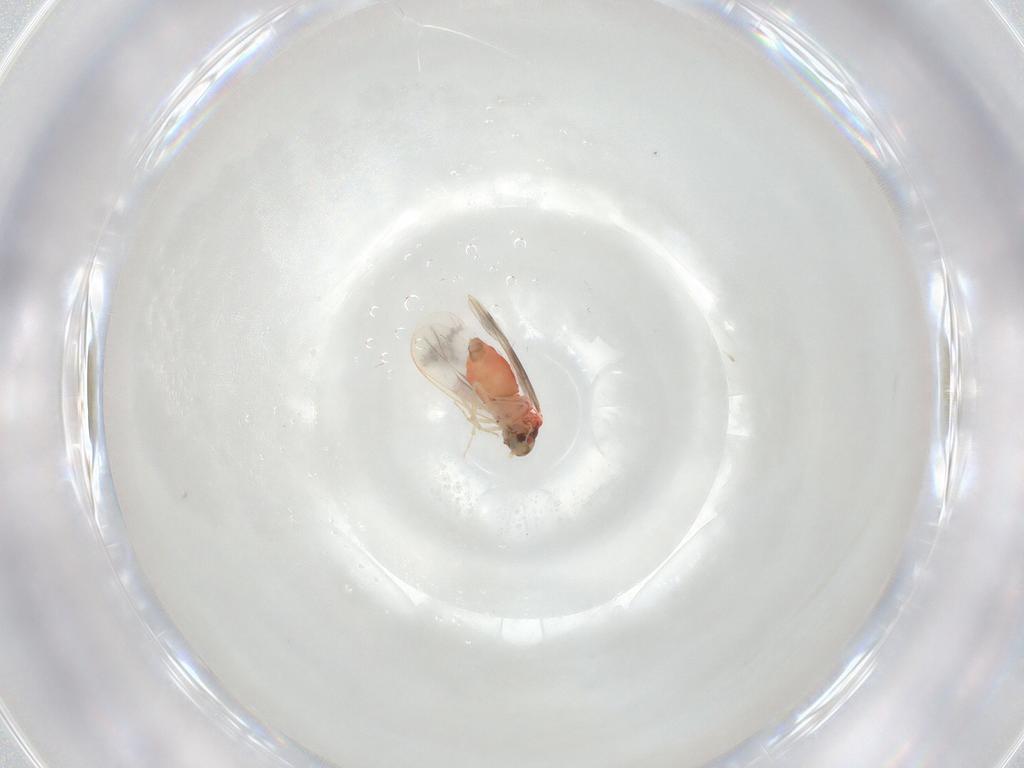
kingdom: Animalia
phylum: Arthropoda
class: Insecta
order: Hemiptera
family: Aleyrodidae
